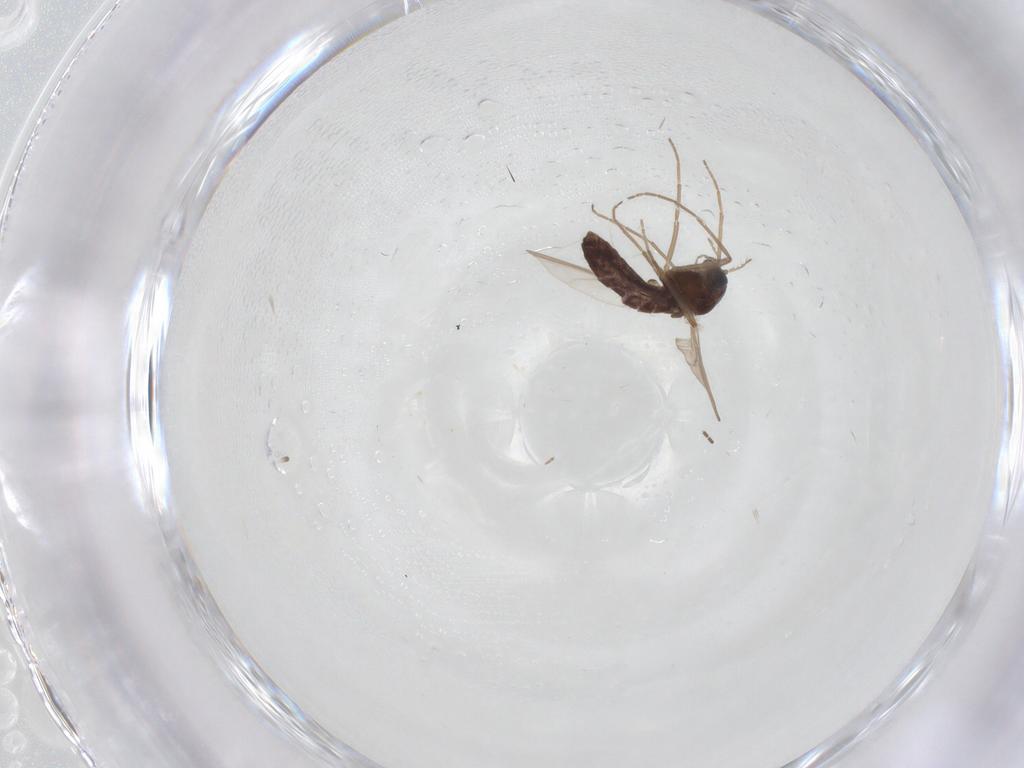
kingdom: Animalia
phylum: Arthropoda
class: Insecta
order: Diptera
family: Chironomidae
